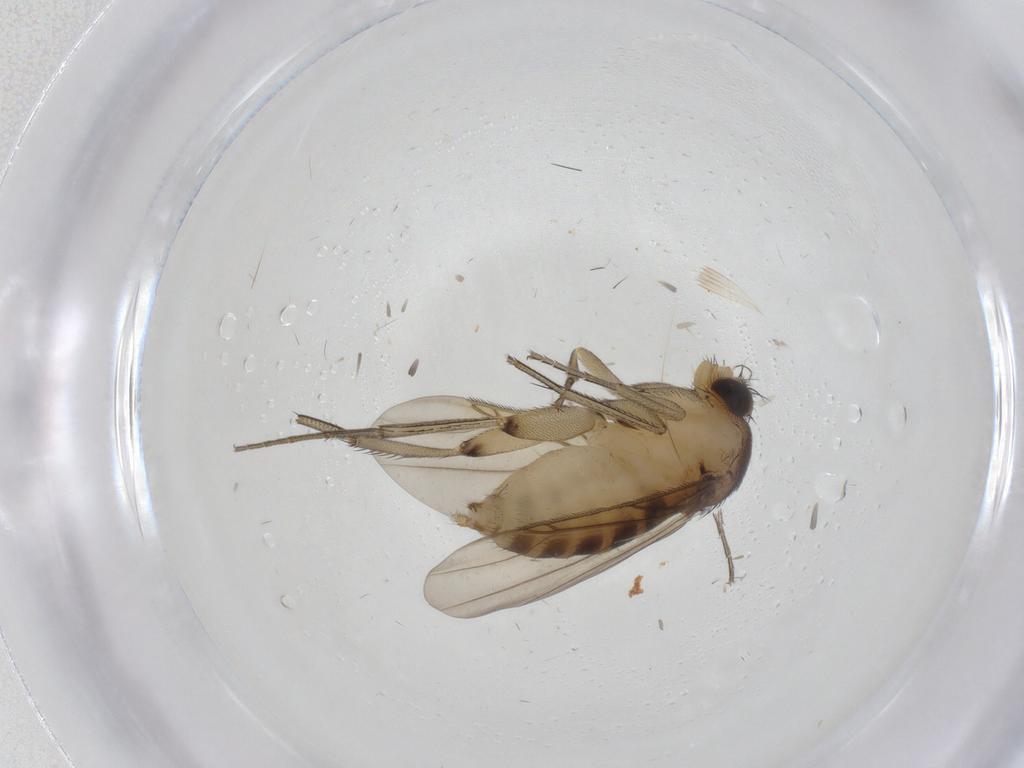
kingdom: Animalia
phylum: Arthropoda
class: Insecta
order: Diptera
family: Phoridae
